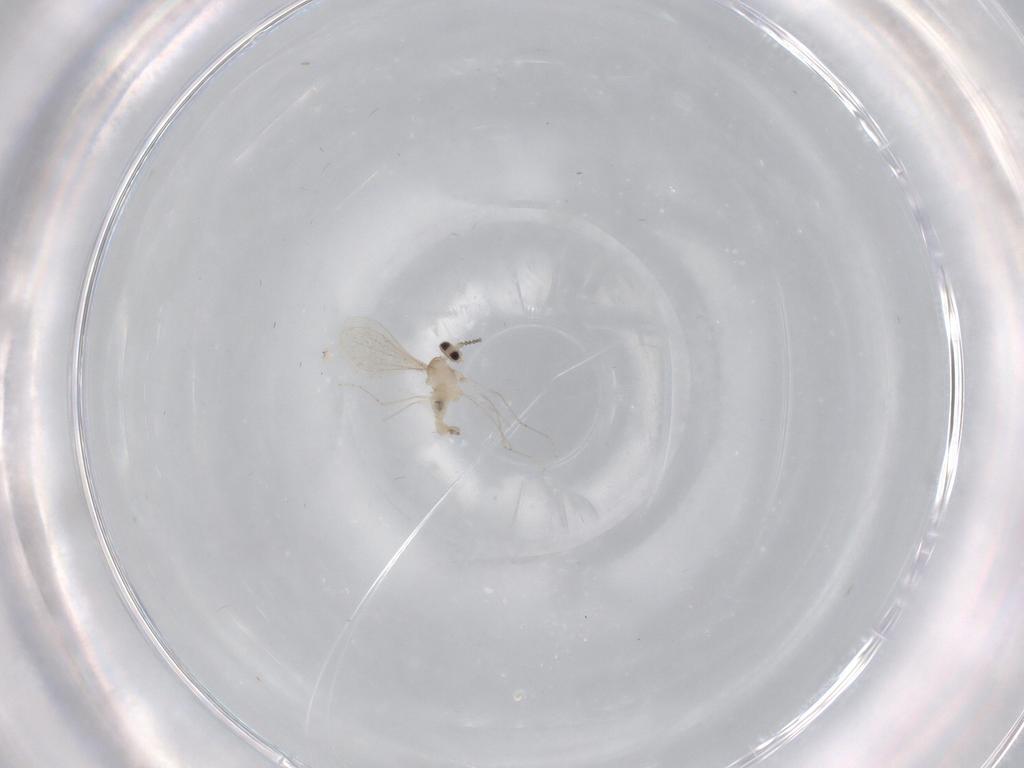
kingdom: Animalia
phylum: Arthropoda
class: Insecta
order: Diptera
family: Cecidomyiidae
